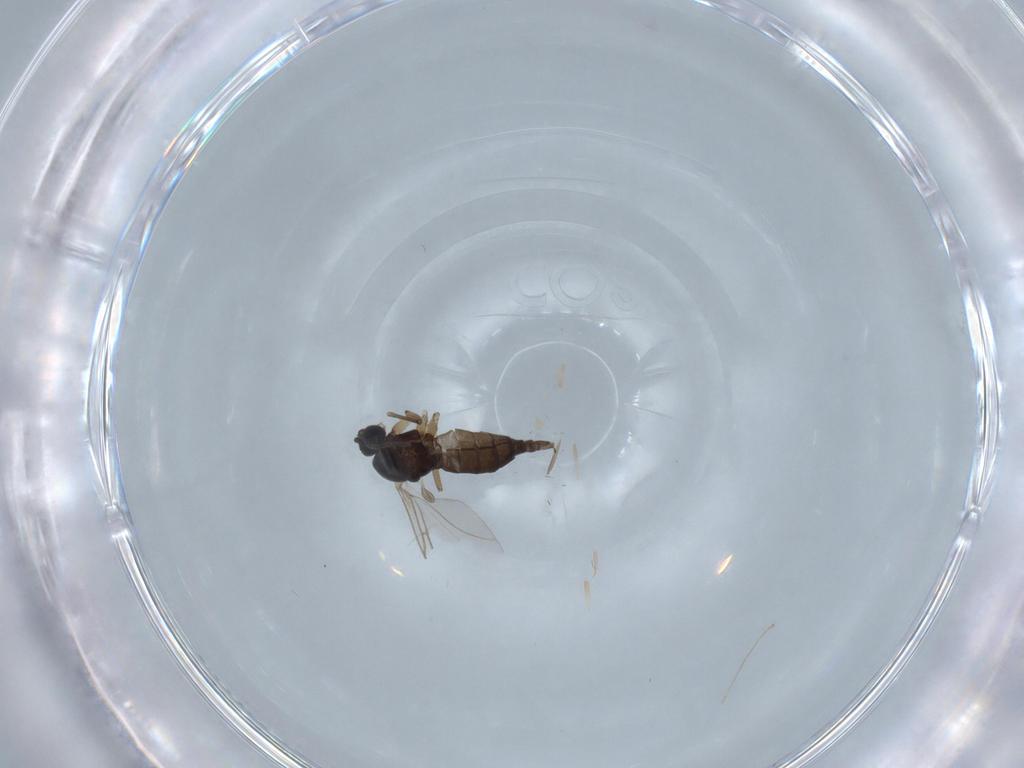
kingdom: Animalia
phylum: Arthropoda
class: Insecta
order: Diptera
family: Sciaridae
